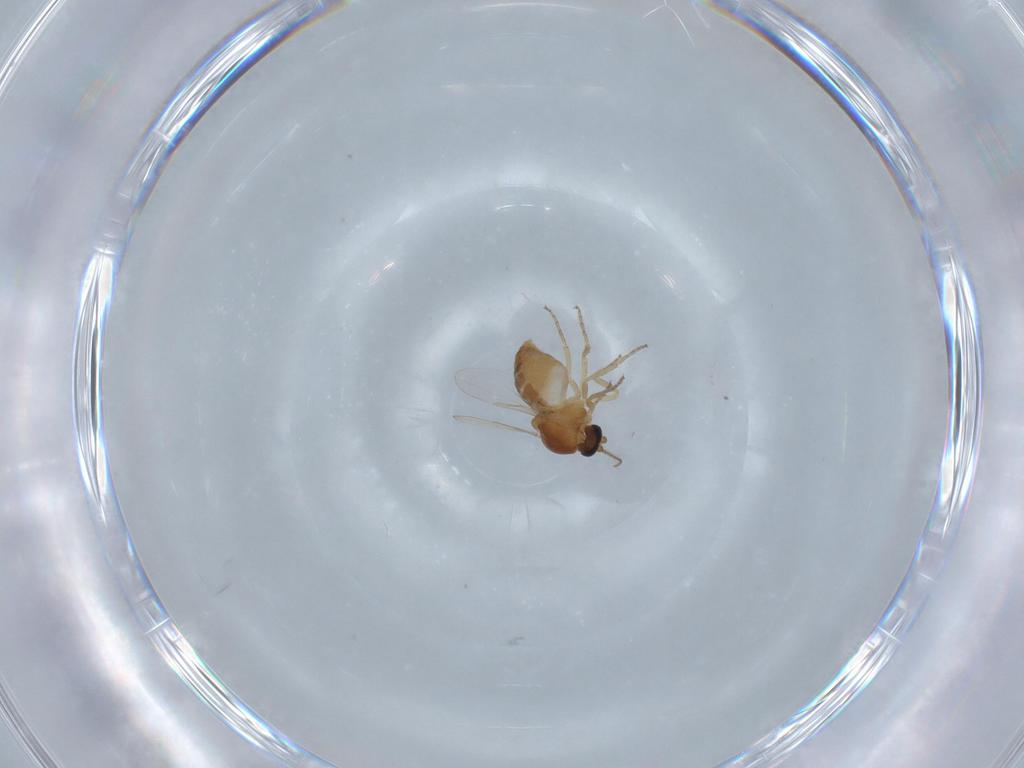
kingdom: Animalia
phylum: Arthropoda
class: Insecta
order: Diptera
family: Ceratopogonidae
